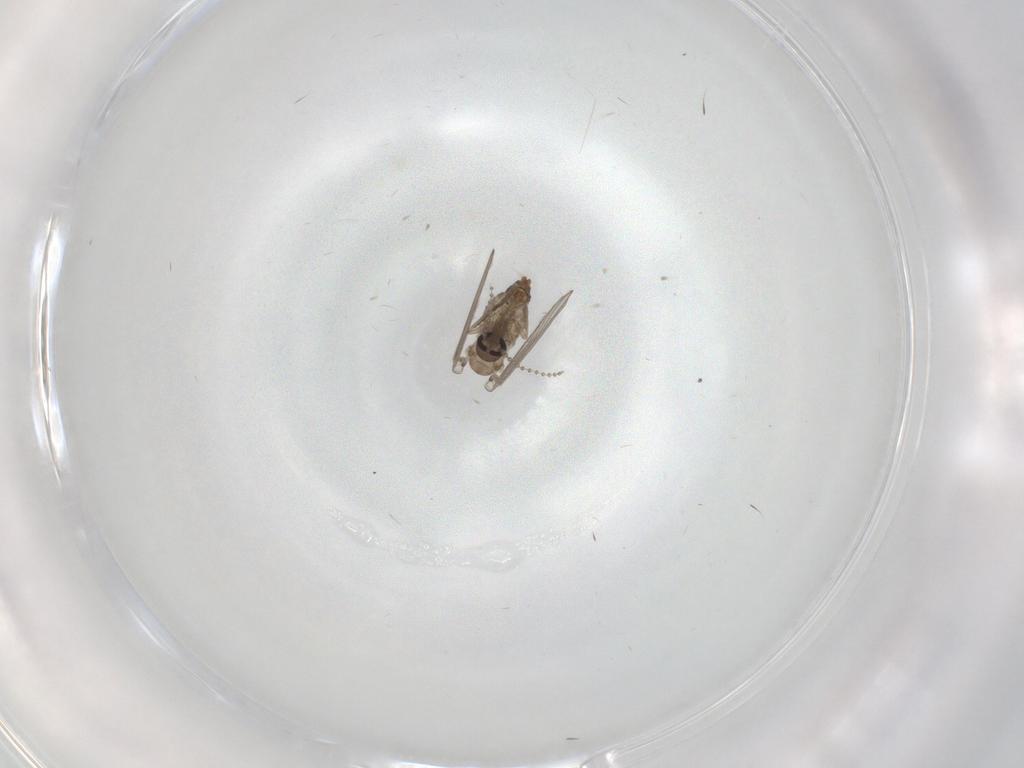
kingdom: Animalia
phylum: Arthropoda
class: Insecta
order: Diptera
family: Psychodidae
